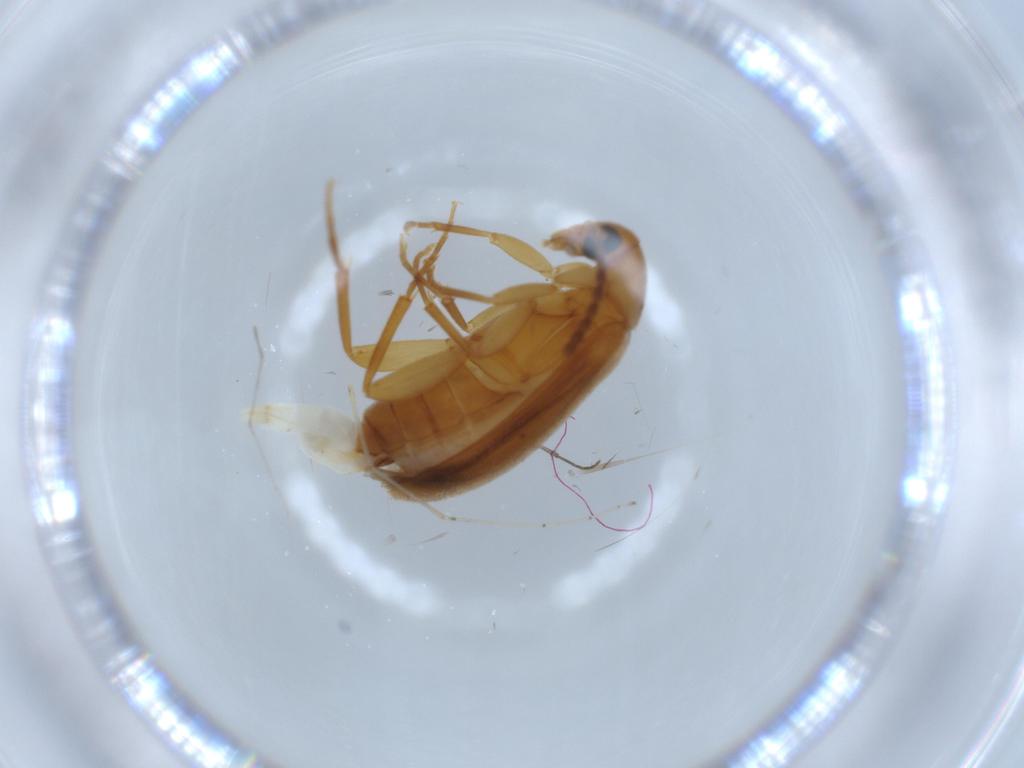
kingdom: Animalia
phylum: Arthropoda
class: Insecta
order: Coleoptera
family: Scraptiidae
